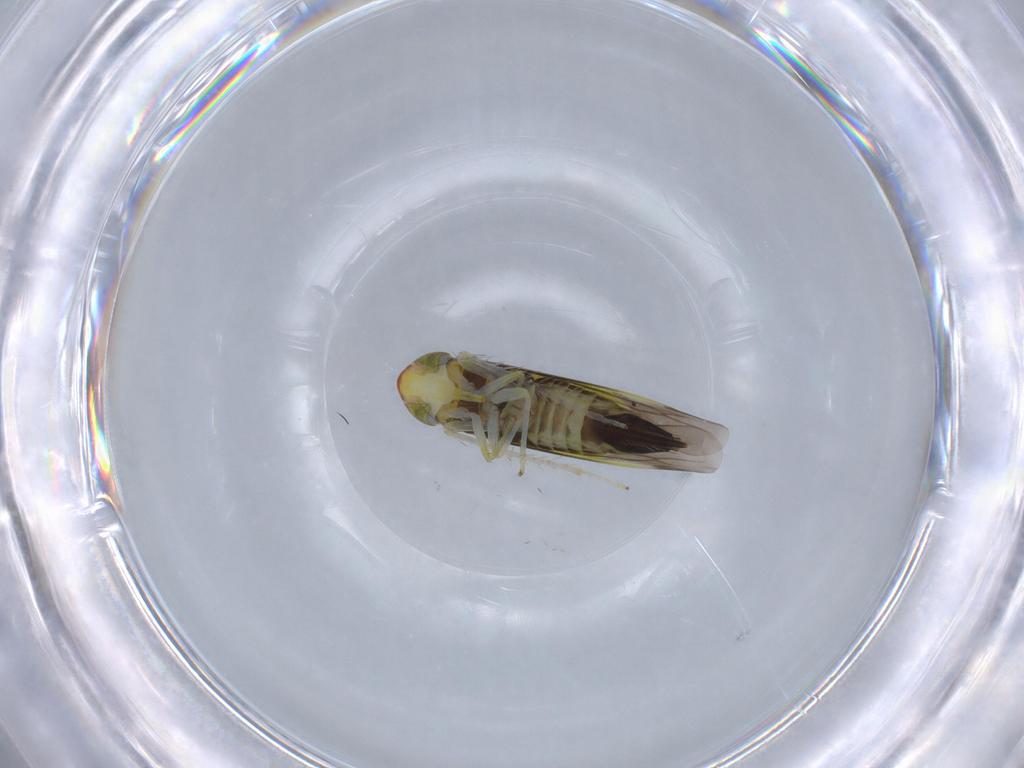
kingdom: Animalia
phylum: Arthropoda
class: Insecta
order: Hemiptera
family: Cicadellidae
